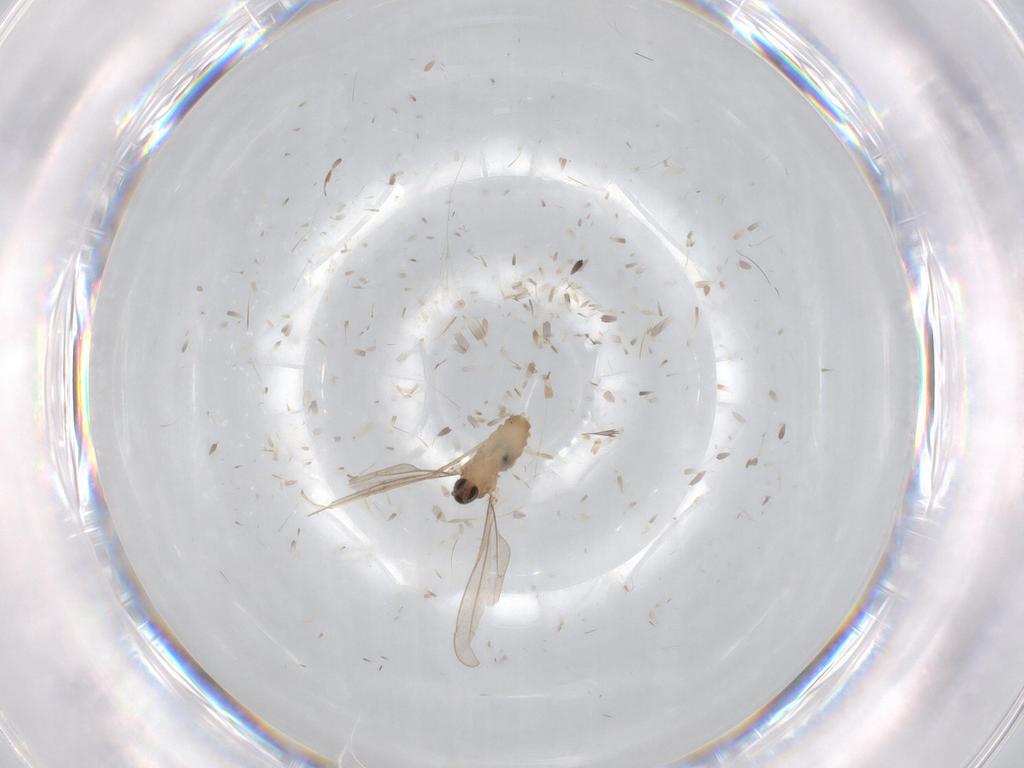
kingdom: Animalia
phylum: Arthropoda
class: Insecta
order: Diptera
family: Cecidomyiidae
